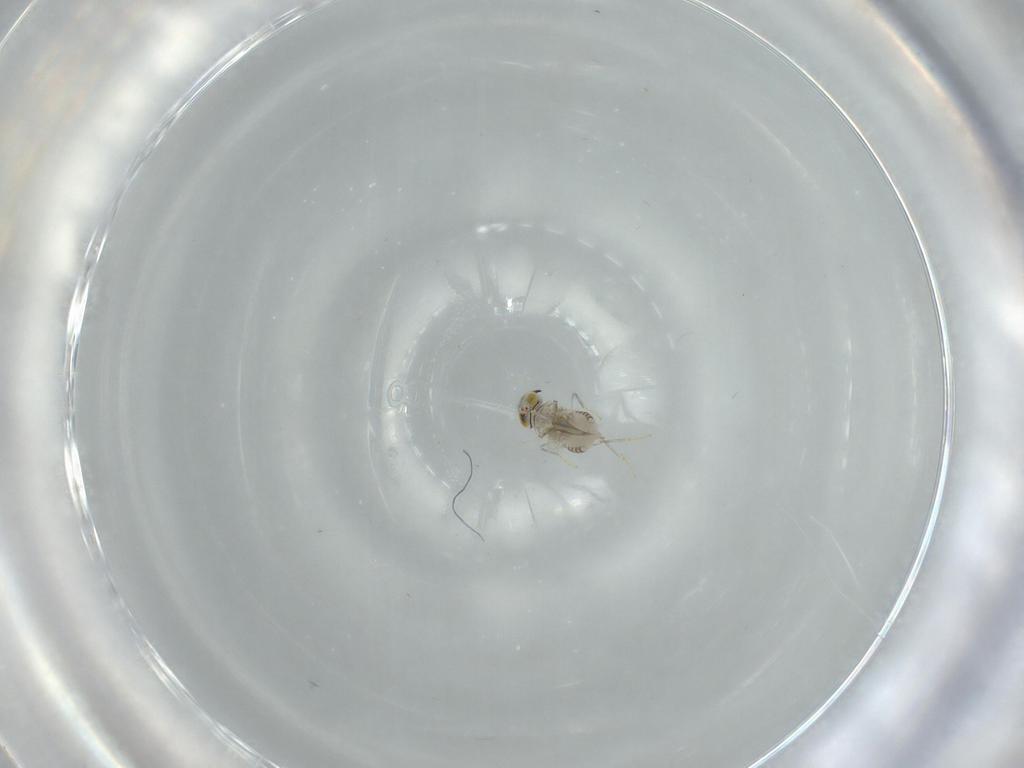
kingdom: Animalia
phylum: Arthropoda
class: Insecta
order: Hymenoptera
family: Aphelinidae
